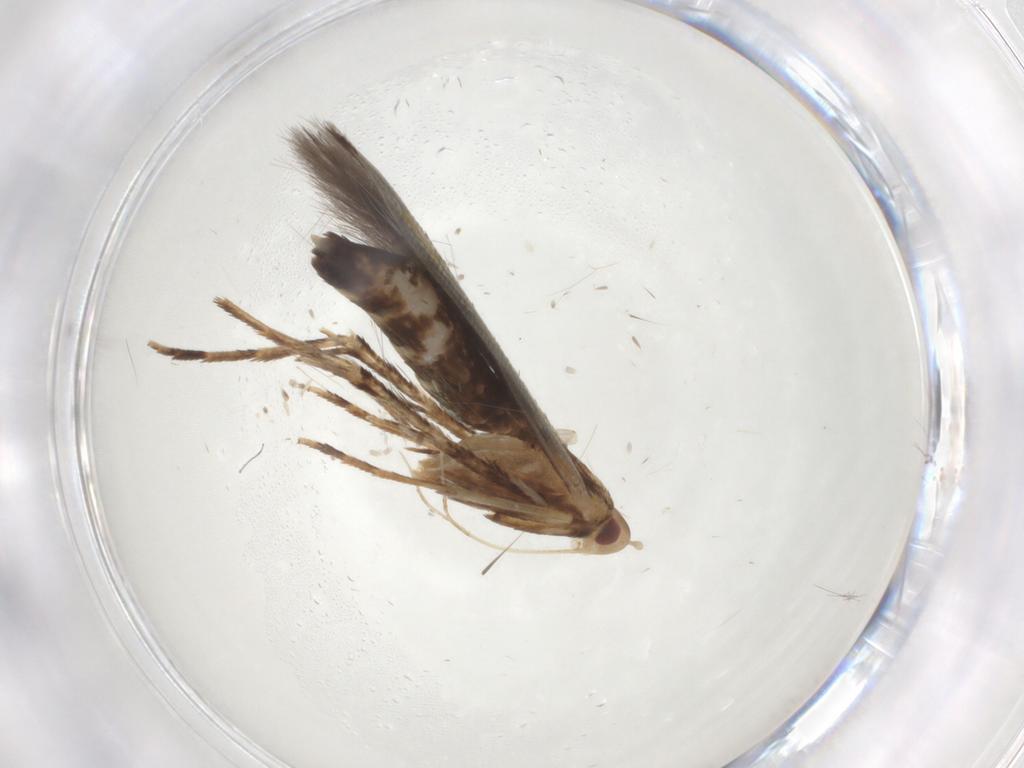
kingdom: Animalia
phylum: Arthropoda
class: Insecta
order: Lepidoptera
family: Cosmopterigidae
